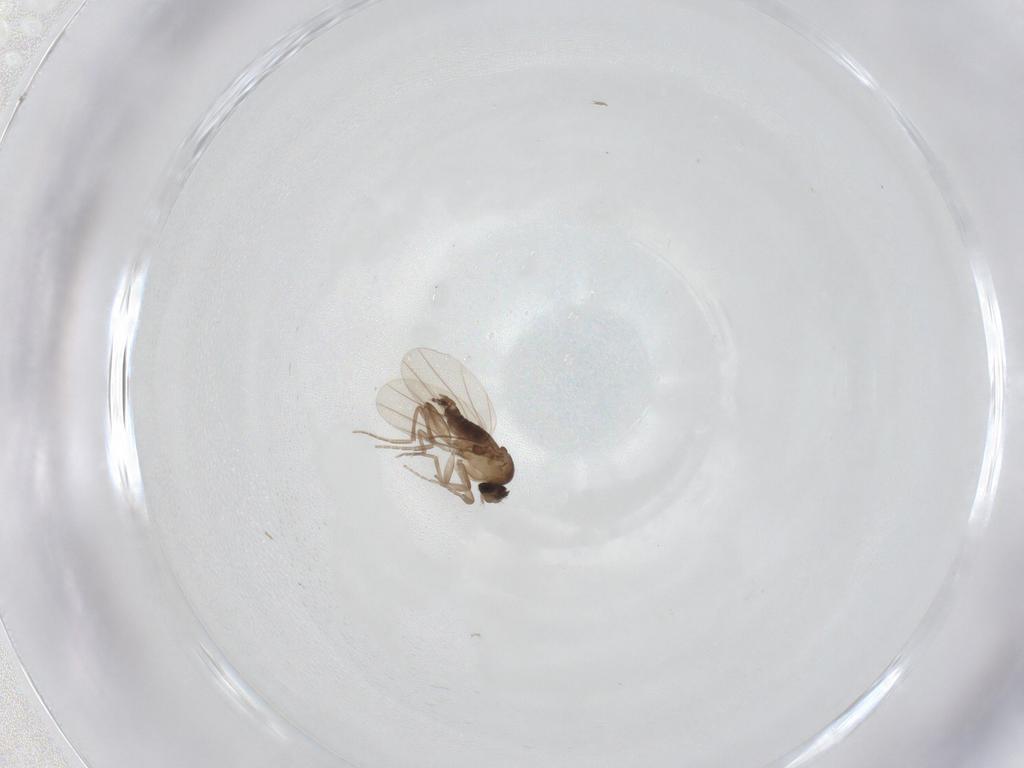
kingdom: Animalia
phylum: Arthropoda
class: Insecta
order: Diptera
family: Phoridae
